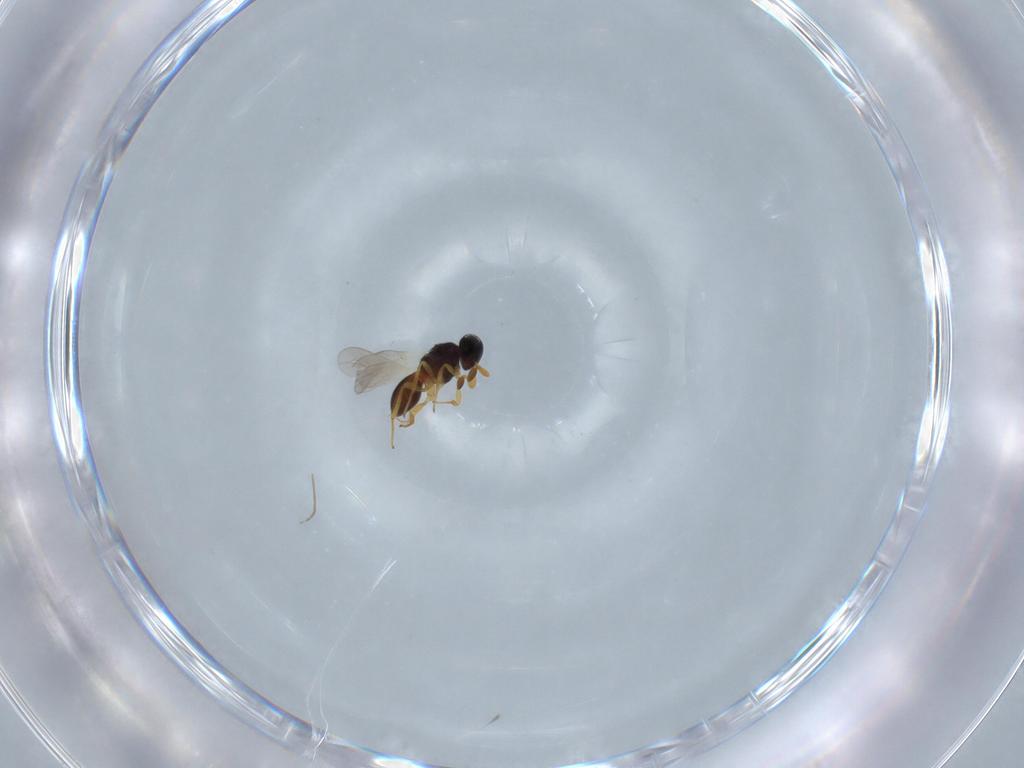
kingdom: Animalia
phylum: Arthropoda
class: Insecta
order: Hymenoptera
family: Platygastridae
